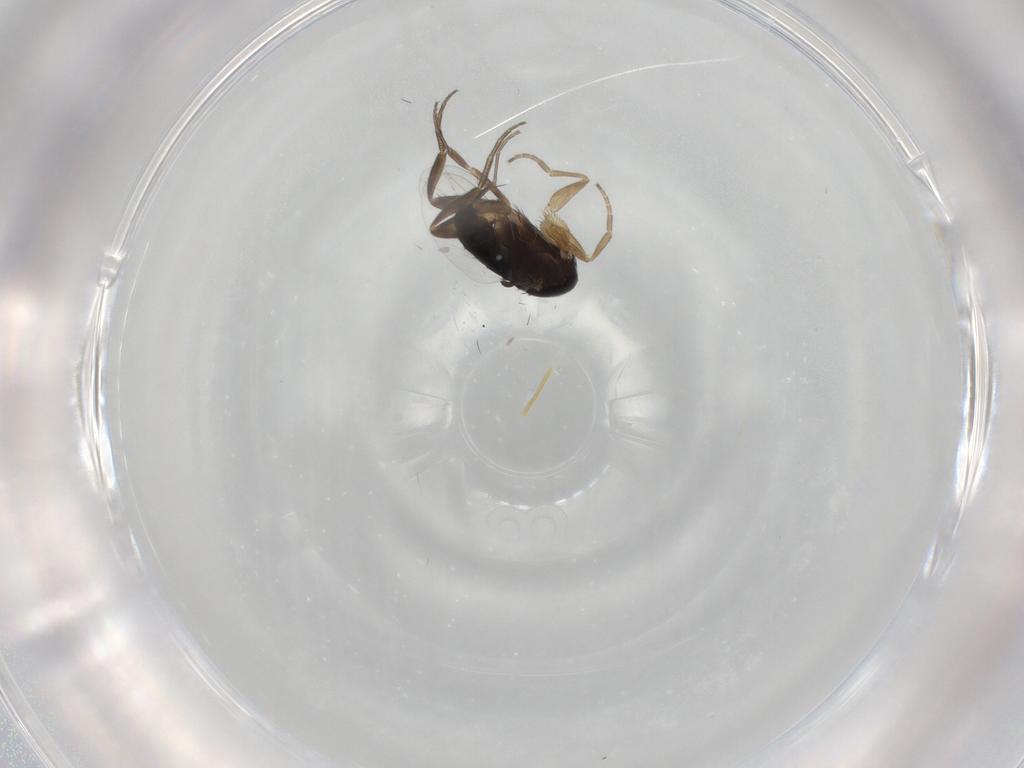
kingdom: Animalia
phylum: Arthropoda
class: Insecta
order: Diptera
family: Phoridae
